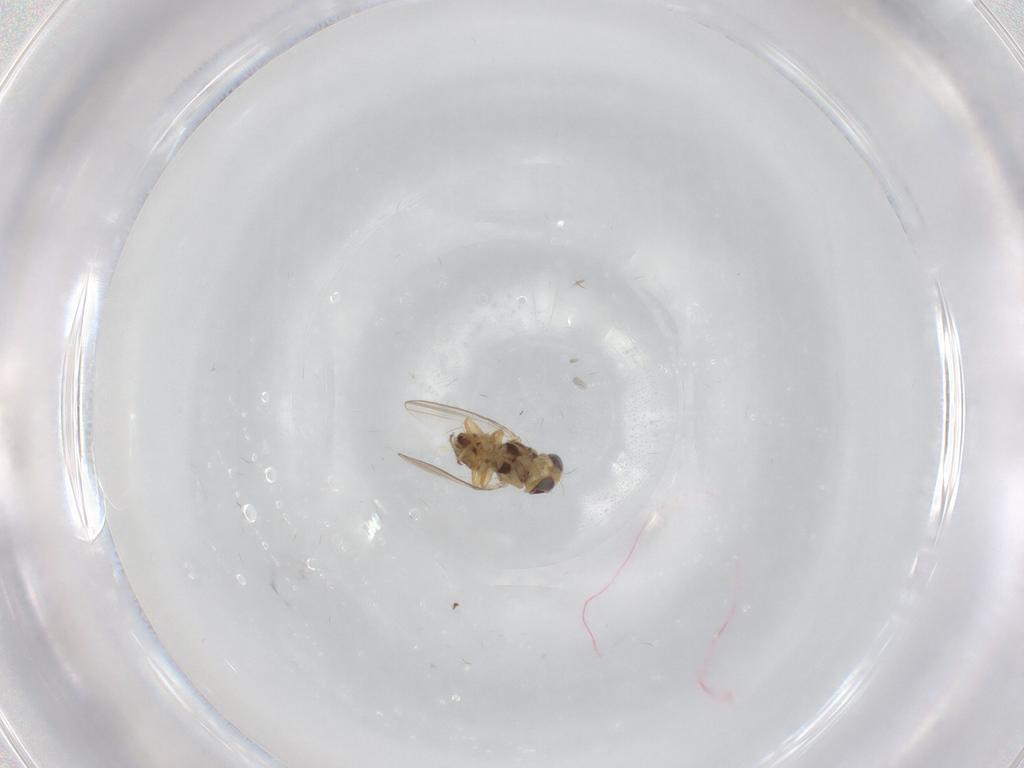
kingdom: Animalia
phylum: Arthropoda
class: Insecta
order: Diptera
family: Chyromyidae
